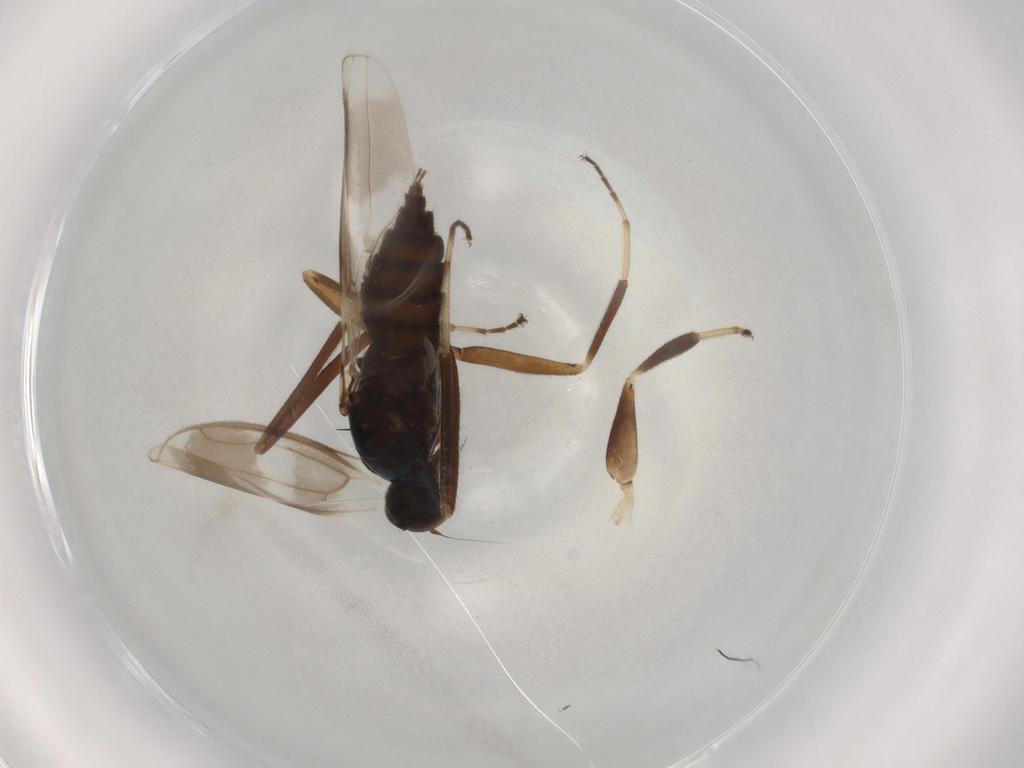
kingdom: Animalia
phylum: Arthropoda
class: Insecta
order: Diptera
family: Hybotidae
